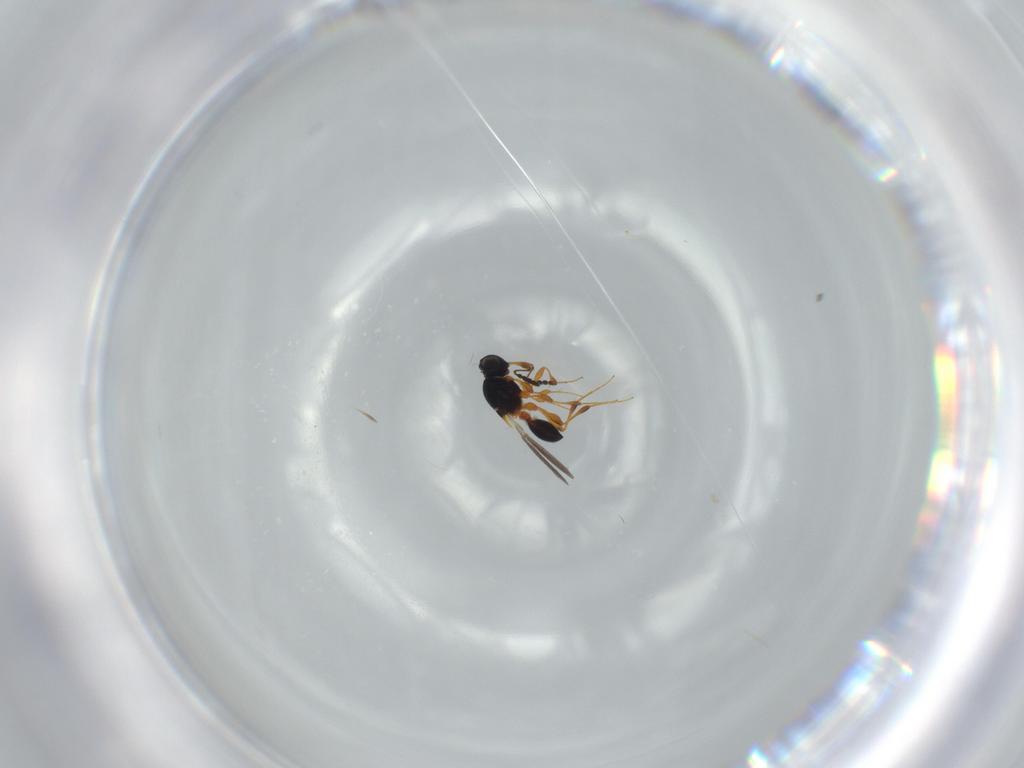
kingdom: Animalia
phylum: Arthropoda
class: Insecta
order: Hymenoptera
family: Platygastridae
